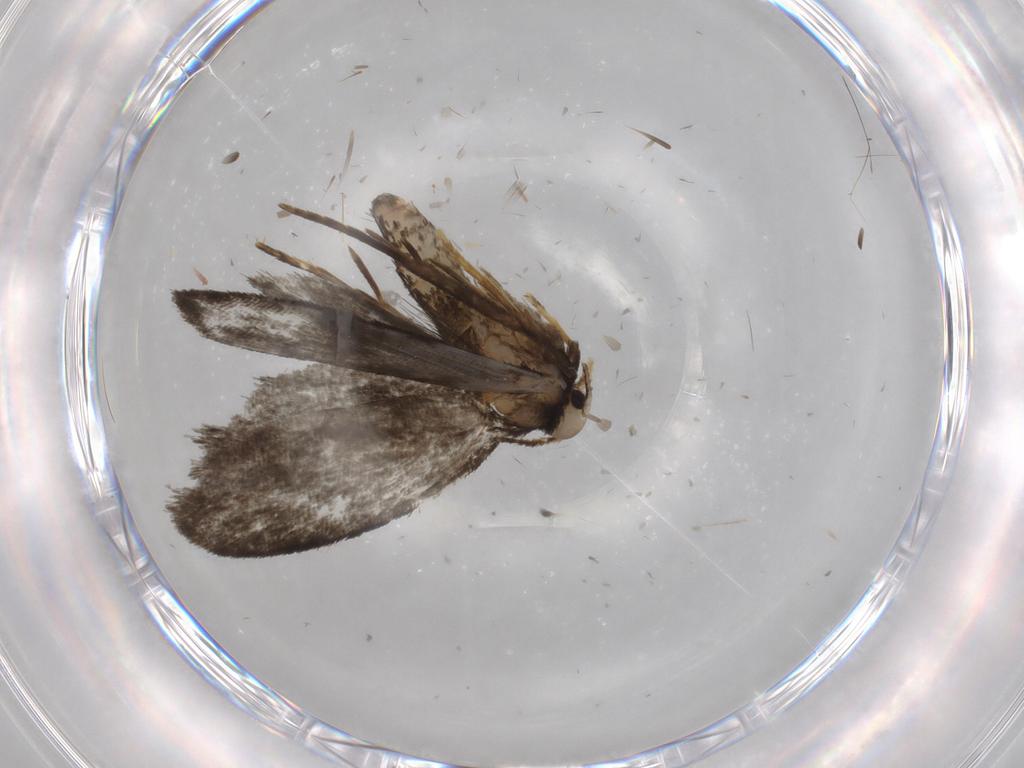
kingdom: Animalia
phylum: Arthropoda
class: Insecta
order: Lepidoptera
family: Psychidae
